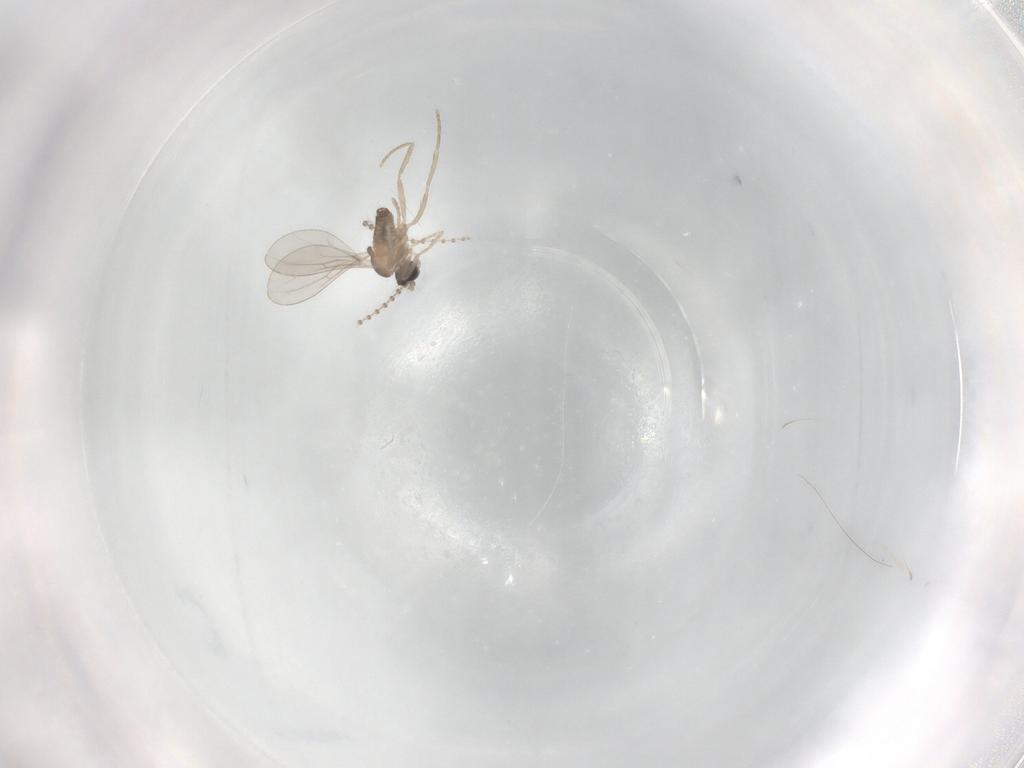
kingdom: Animalia
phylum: Arthropoda
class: Insecta
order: Diptera
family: Cecidomyiidae
